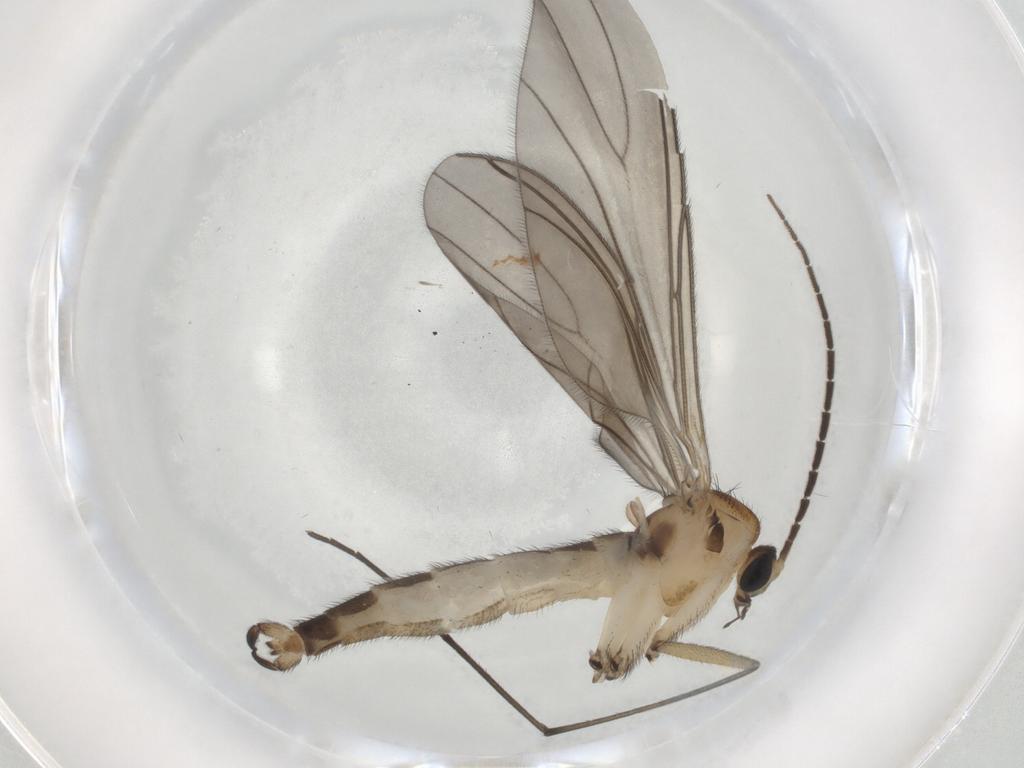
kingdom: Animalia
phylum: Arthropoda
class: Insecta
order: Diptera
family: Sciaridae
